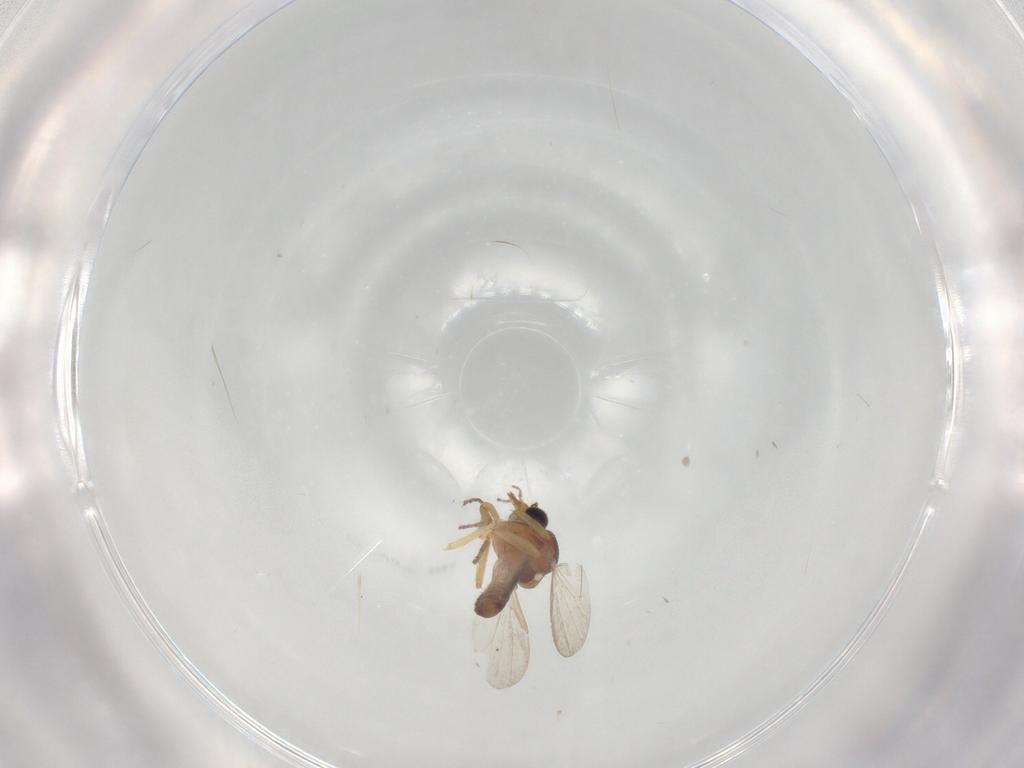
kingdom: Animalia
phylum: Arthropoda
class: Insecta
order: Diptera
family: Ceratopogonidae
